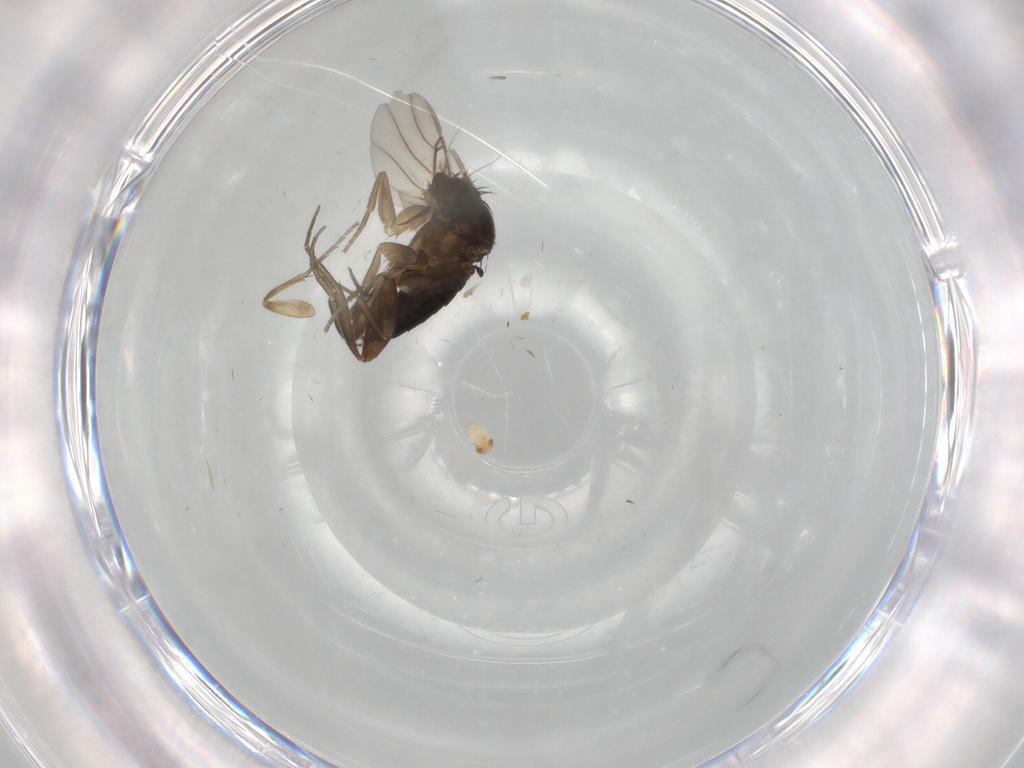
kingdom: Animalia
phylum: Arthropoda
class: Insecta
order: Diptera
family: Phoridae
